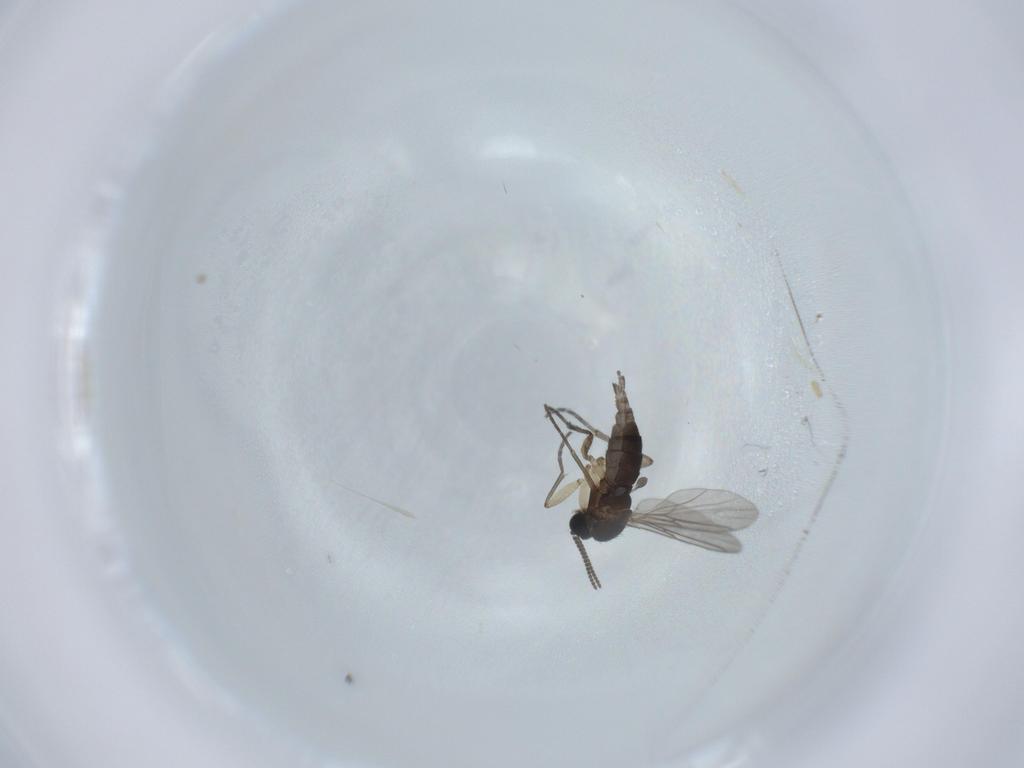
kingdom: Animalia
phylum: Arthropoda
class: Insecta
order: Diptera
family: Sciaridae
